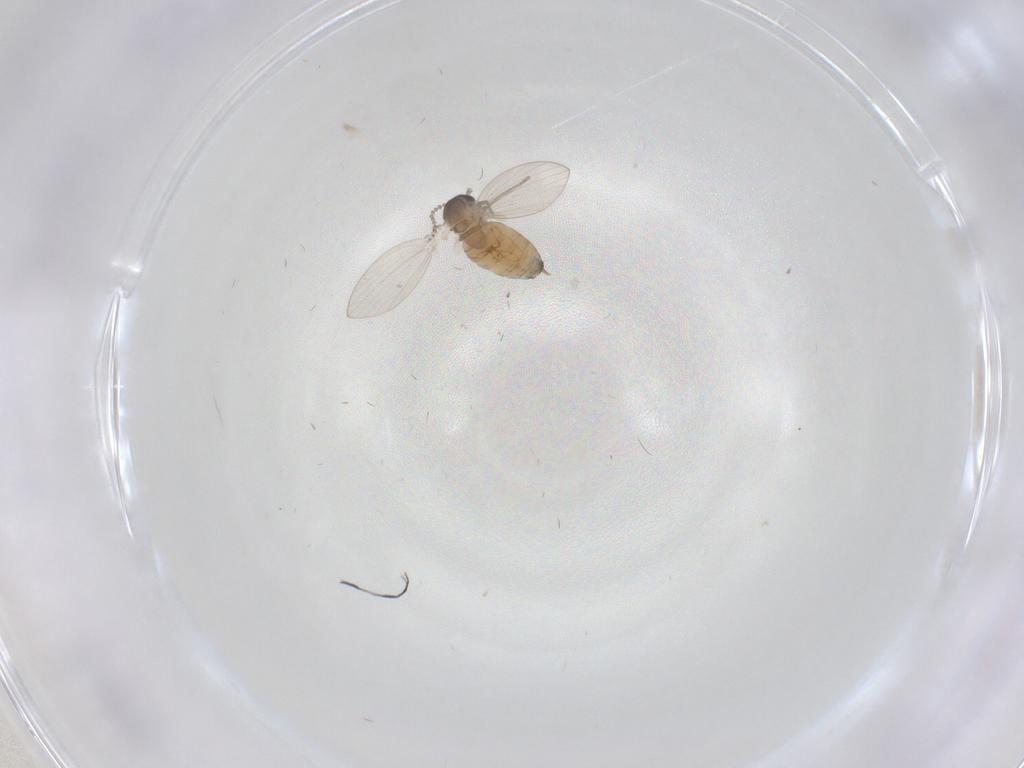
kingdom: Animalia
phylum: Arthropoda
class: Insecta
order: Diptera
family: Psychodidae
